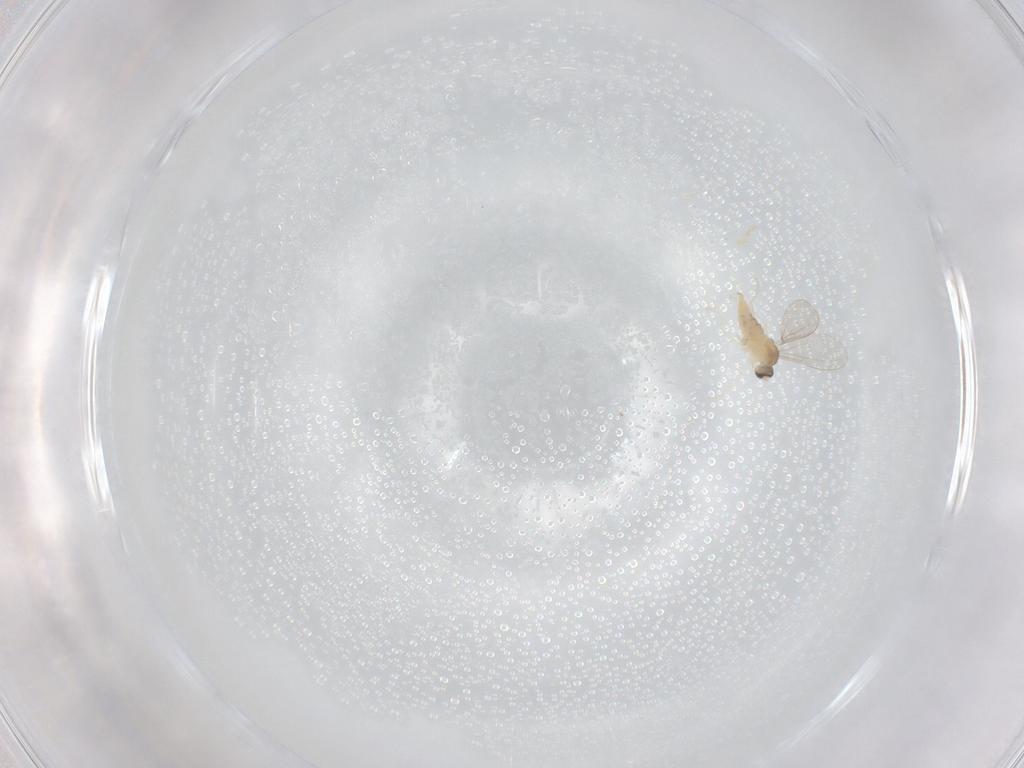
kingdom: Animalia
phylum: Arthropoda
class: Insecta
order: Diptera
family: Cecidomyiidae
